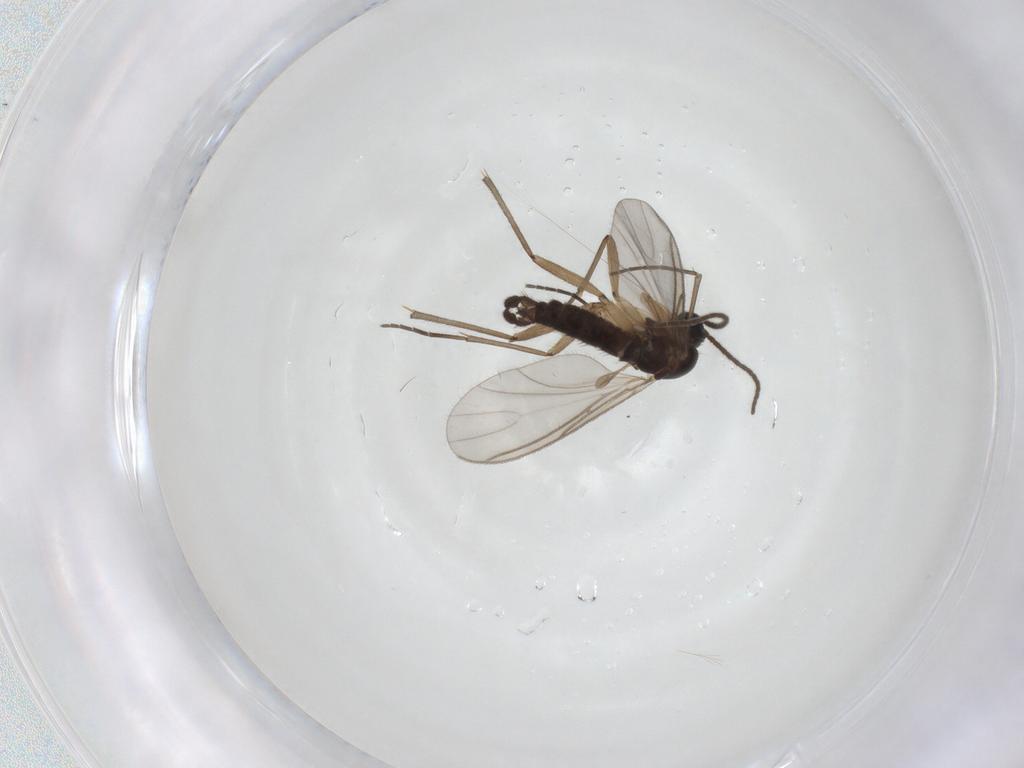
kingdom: Animalia
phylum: Arthropoda
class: Insecta
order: Diptera
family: Sciaridae
